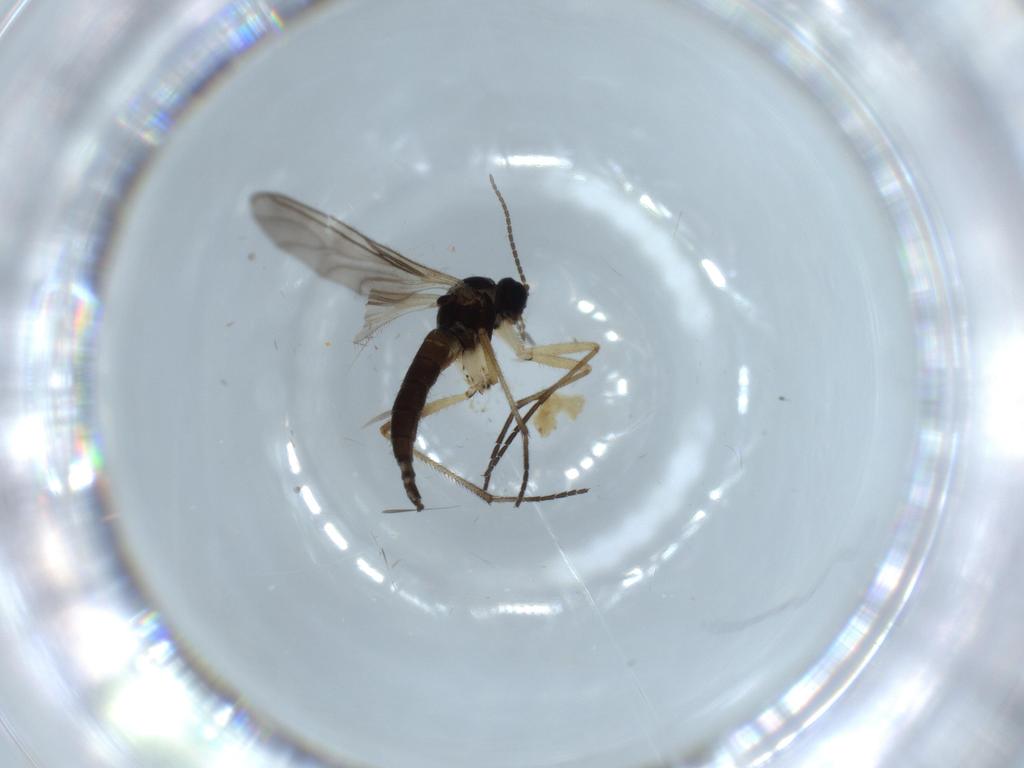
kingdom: Animalia
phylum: Arthropoda
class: Insecta
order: Diptera
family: Sciaridae
